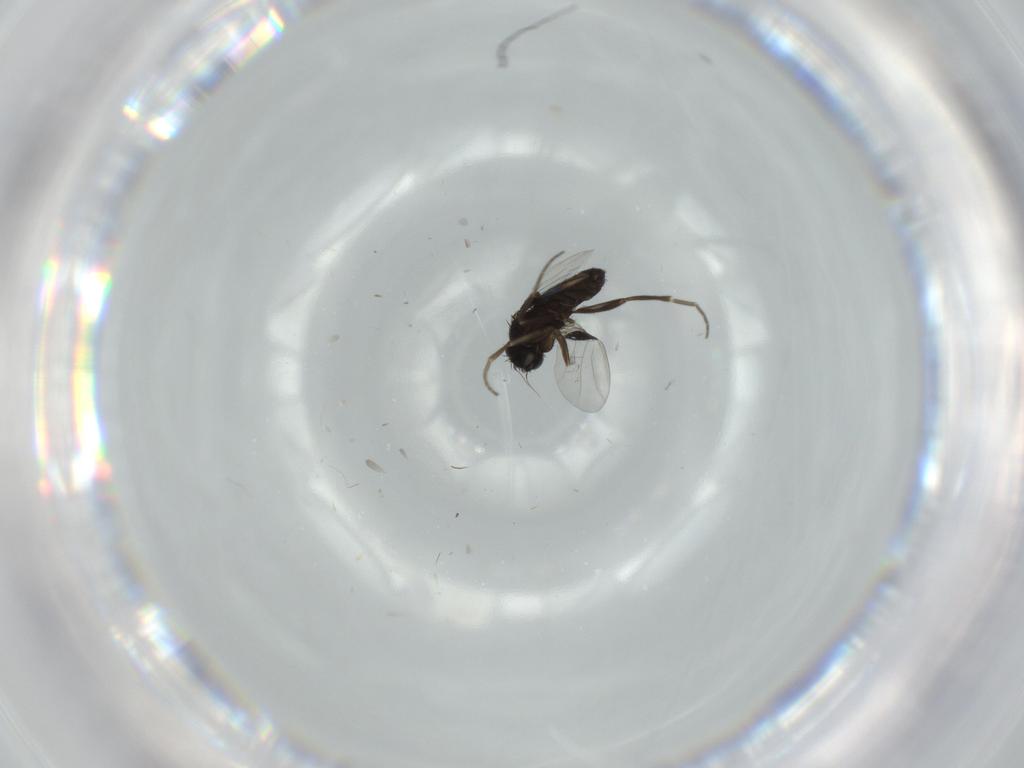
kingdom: Animalia
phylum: Arthropoda
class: Insecta
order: Diptera
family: Phoridae
